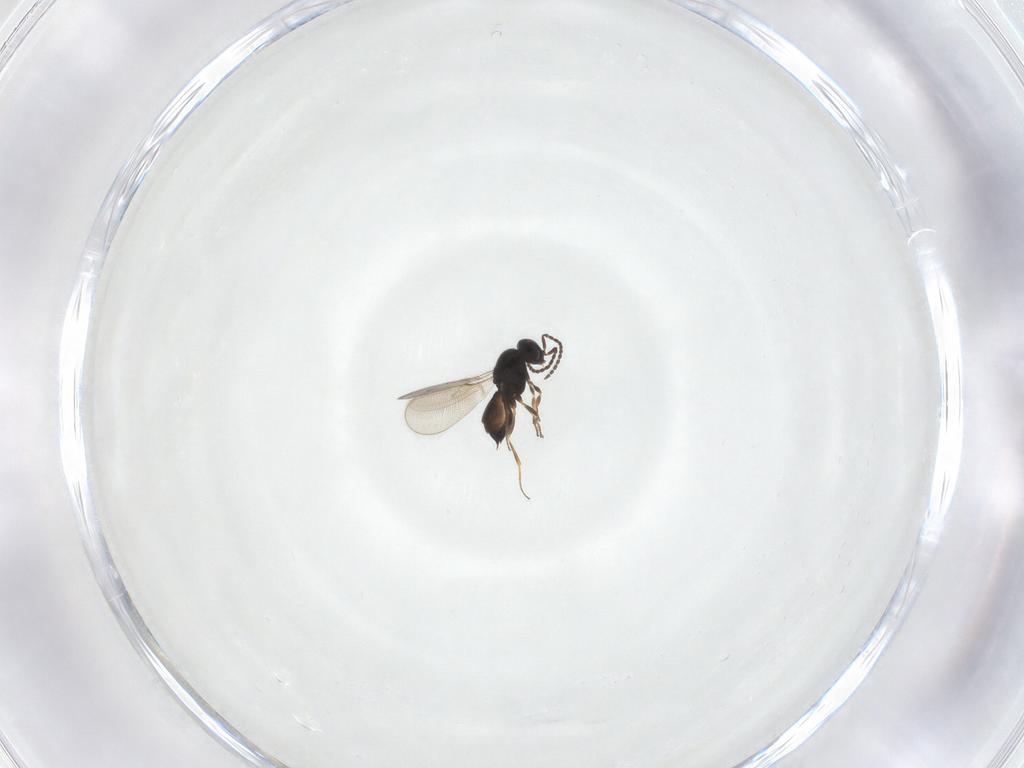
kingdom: Animalia
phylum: Arthropoda
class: Insecta
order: Hymenoptera
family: Scelionidae
